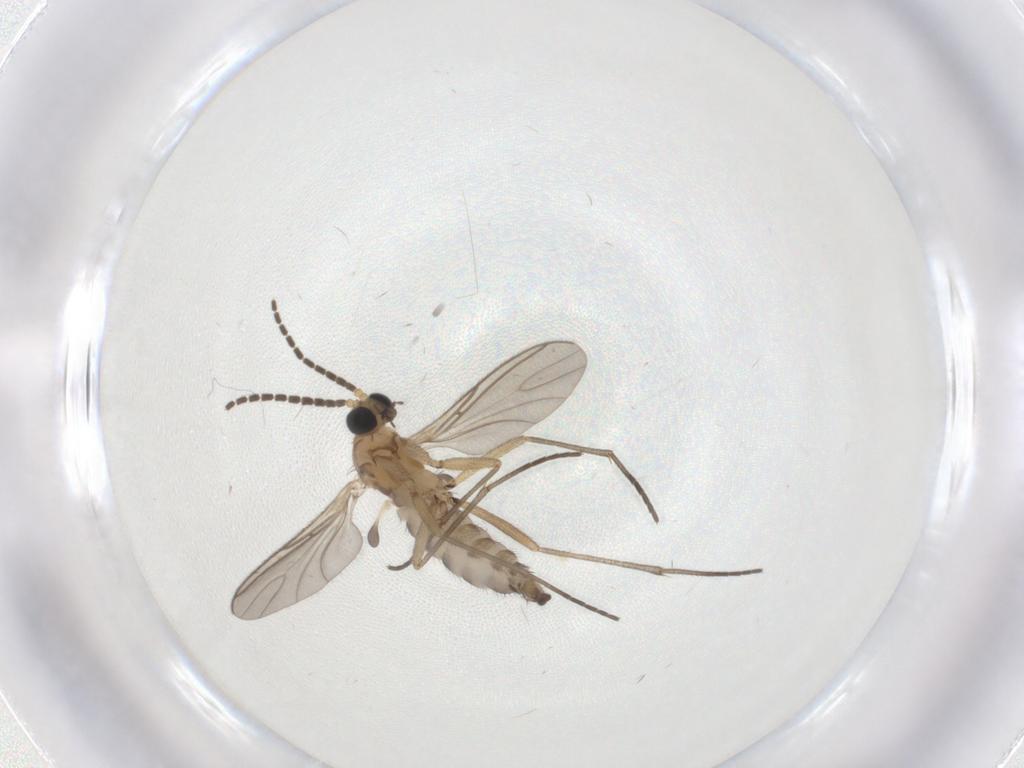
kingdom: Animalia
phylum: Arthropoda
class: Insecta
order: Diptera
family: Sciaridae
